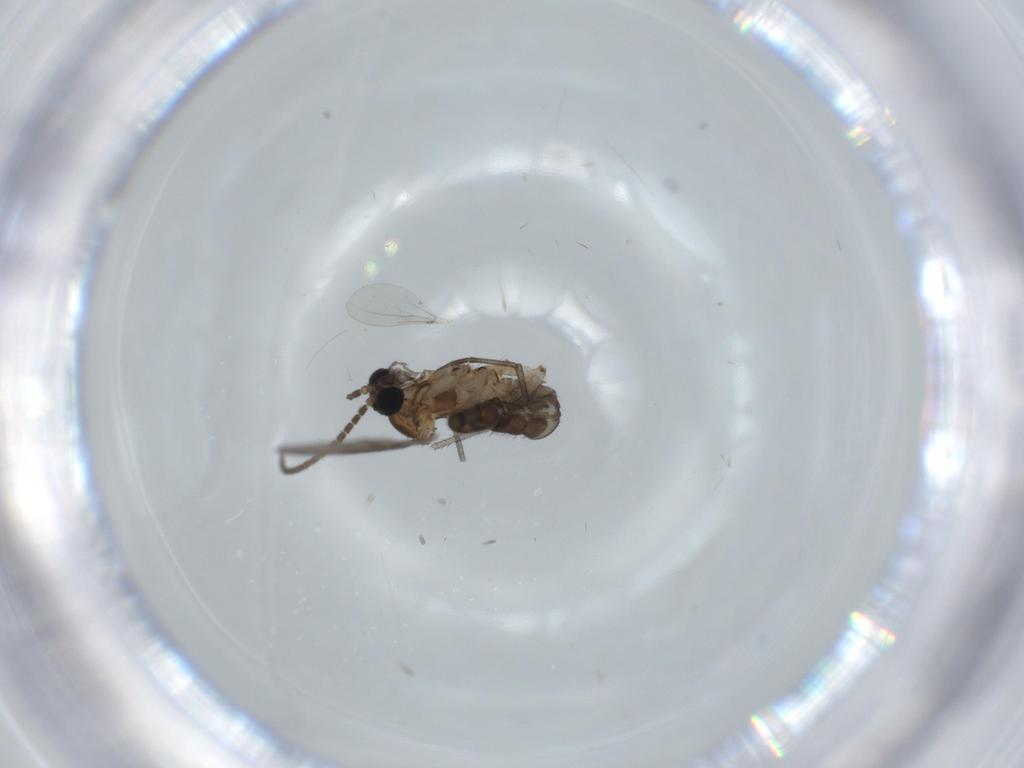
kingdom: Animalia
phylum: Arthropoda
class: Insecta
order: Diptera
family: Sciaridae
